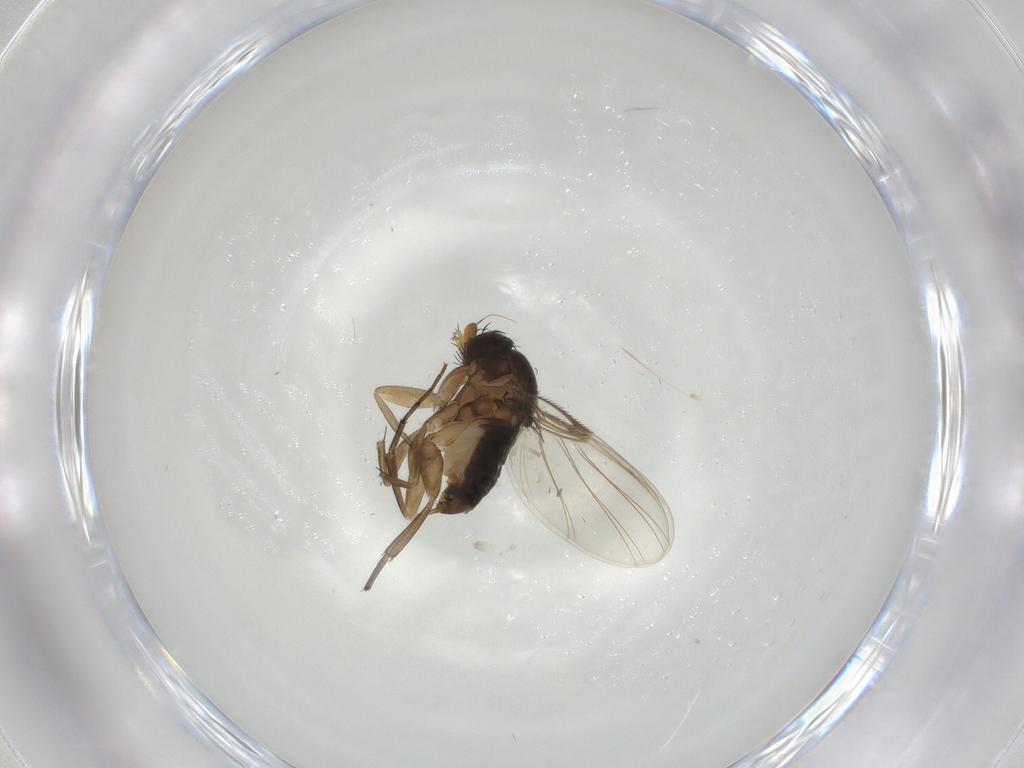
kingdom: Animalia
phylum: Arthropoda
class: Insecta
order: Diptera
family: Phoridae
